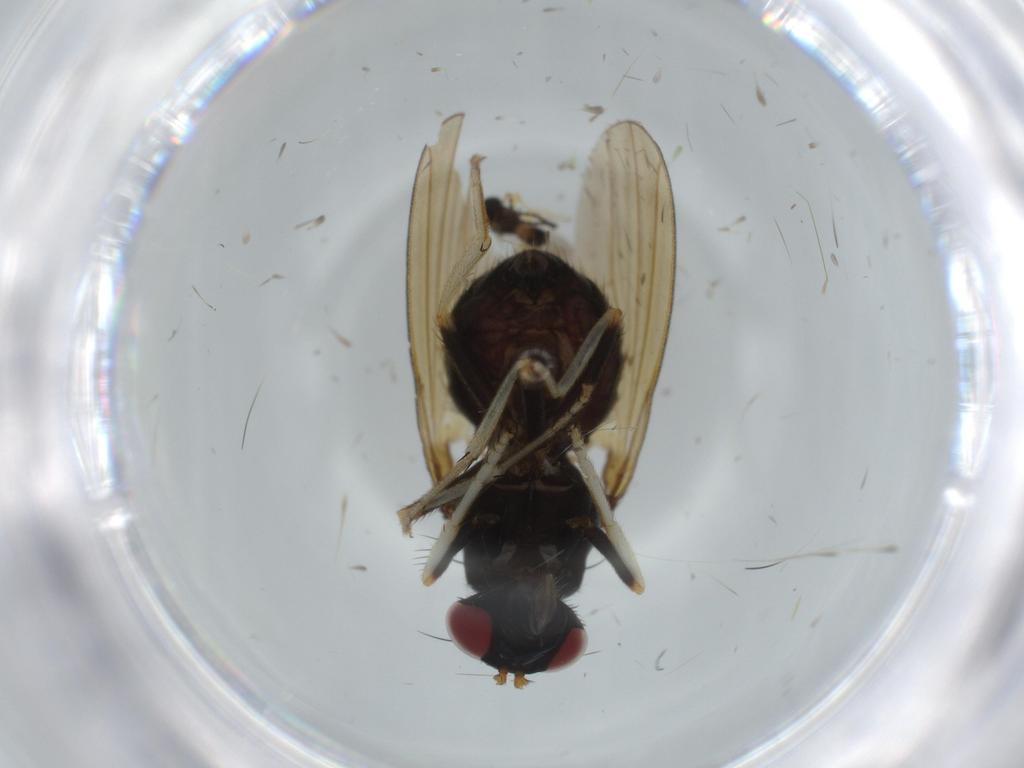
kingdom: Animalia
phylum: Arthropoda
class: Insecta
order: Hymenoptera
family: Scelionidae
